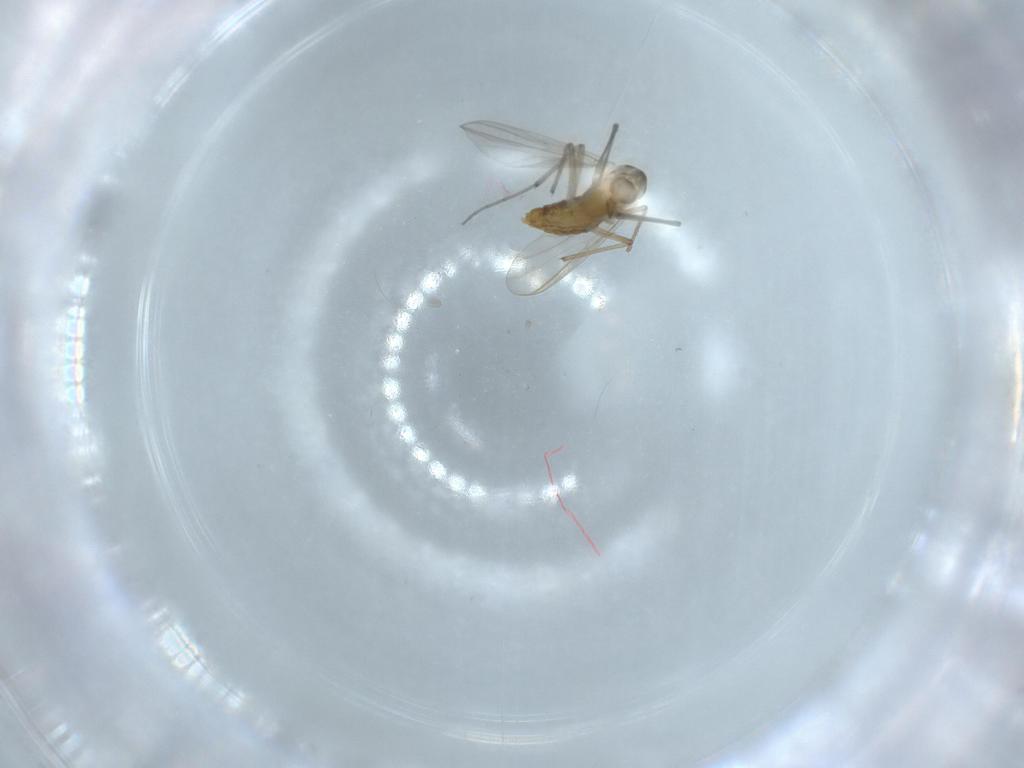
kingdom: Animalia
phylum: Arthropoda
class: Insecta
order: Diptera
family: Chironomidae
